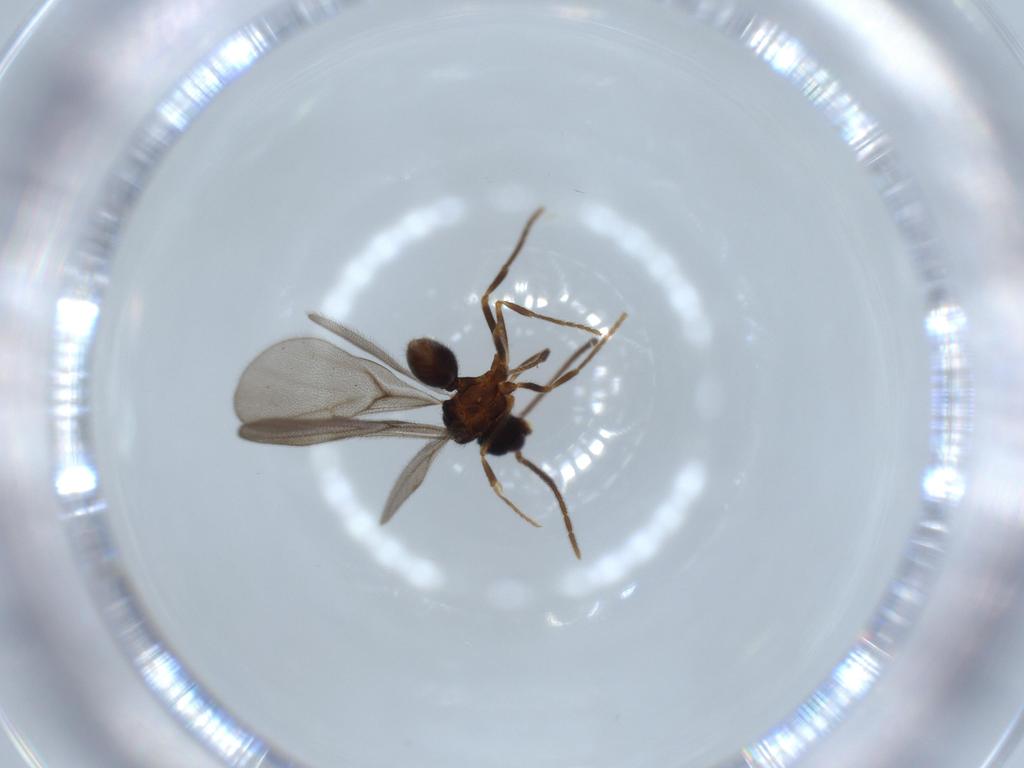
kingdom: Animalia
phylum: Arthropoda
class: Insecta
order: Hymenoptera
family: Formicidae
